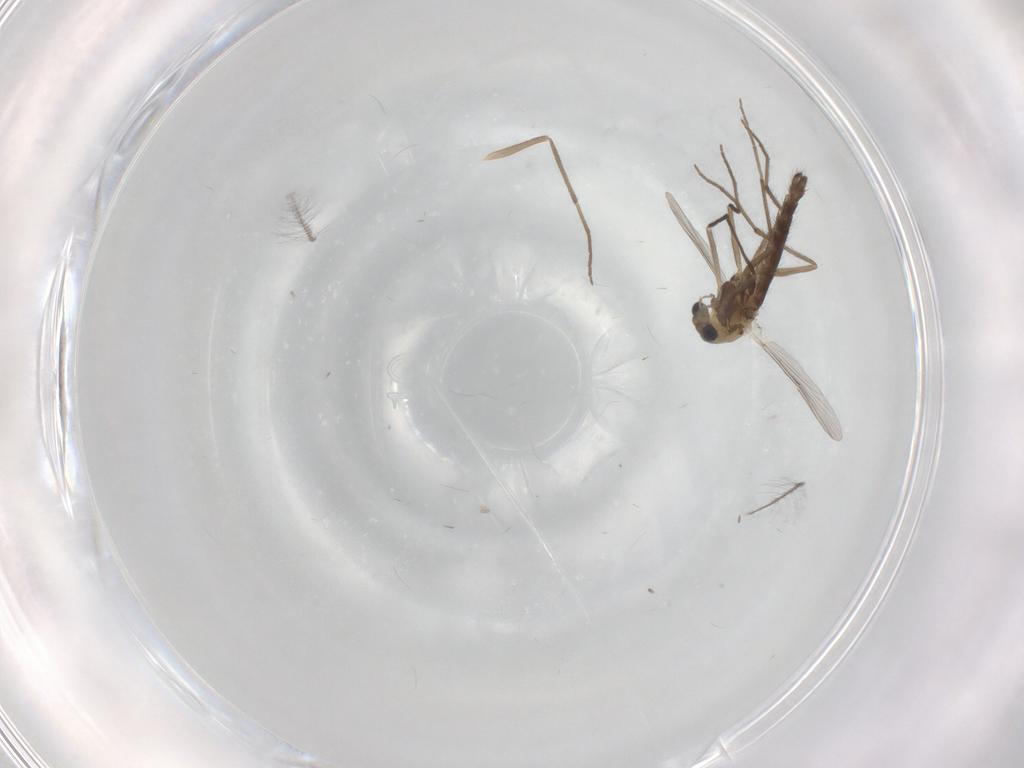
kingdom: Animalia
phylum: Arthropoda
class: Insecta
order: Diptera
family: Chironomidae
